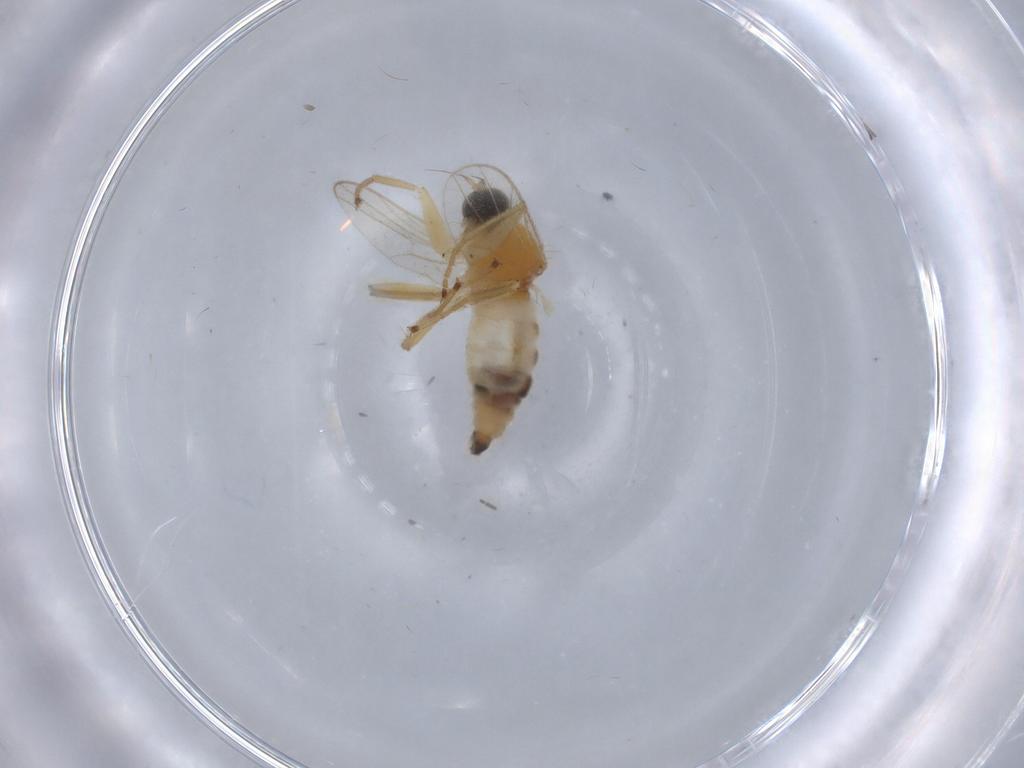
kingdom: Animalia
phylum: Arthropoda
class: Insecta
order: Diptera
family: Hybotidae
